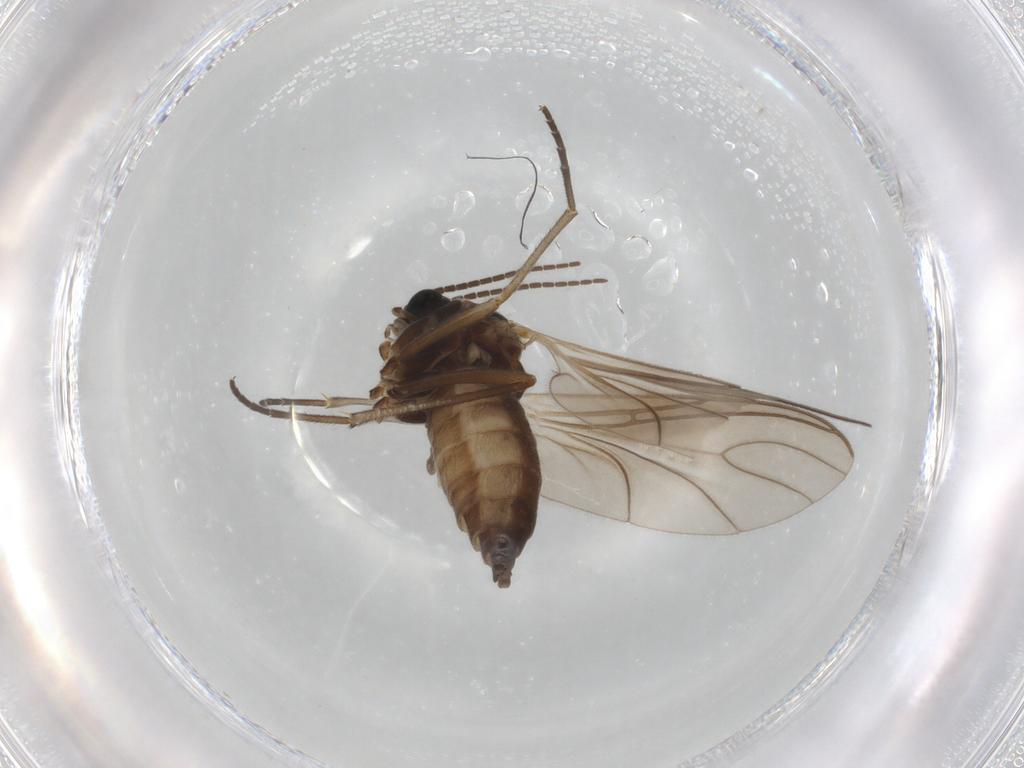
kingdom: Animalia
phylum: Arthropoda
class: Insecta
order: Diptera
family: Sciaridae
